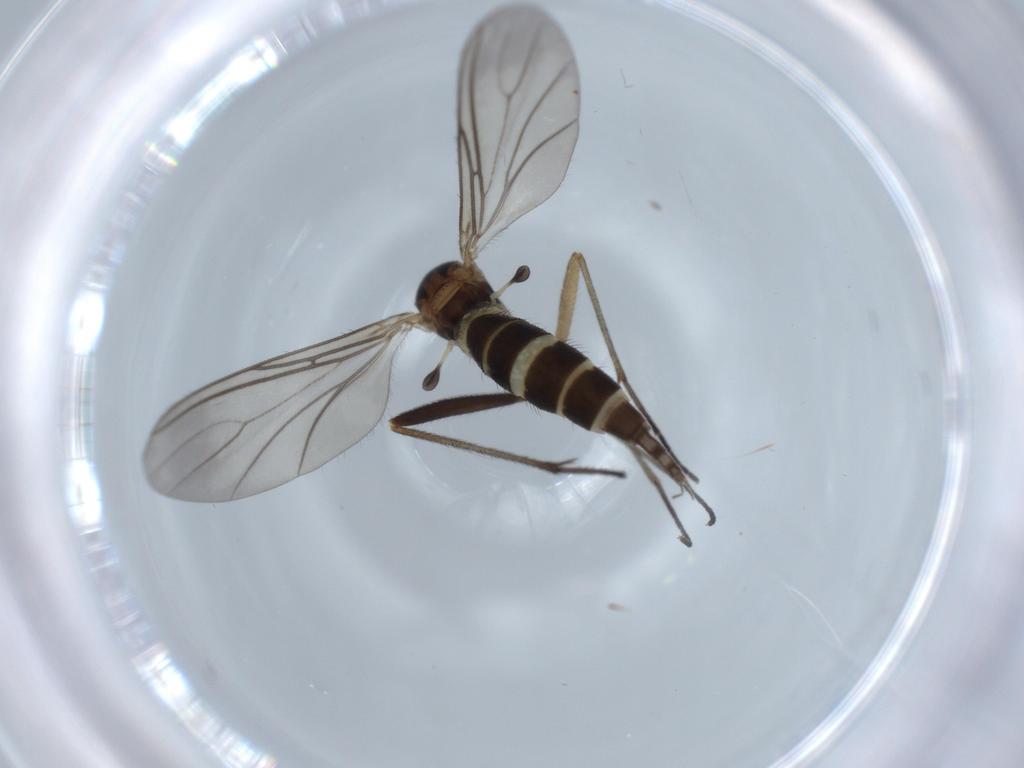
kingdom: Animalia
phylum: Arthropoda
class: Insecta
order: Diptera
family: Sciaridae
